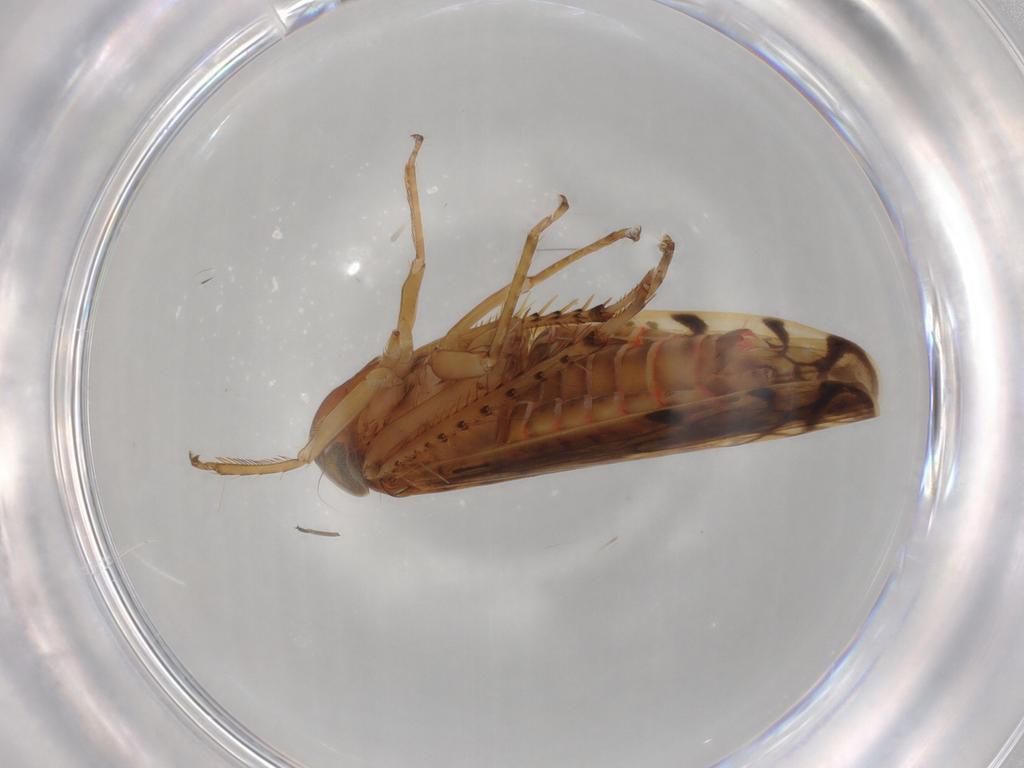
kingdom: Animalia
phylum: Arthropoda
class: Insecta
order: Hemiptera
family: Cicadellidae
